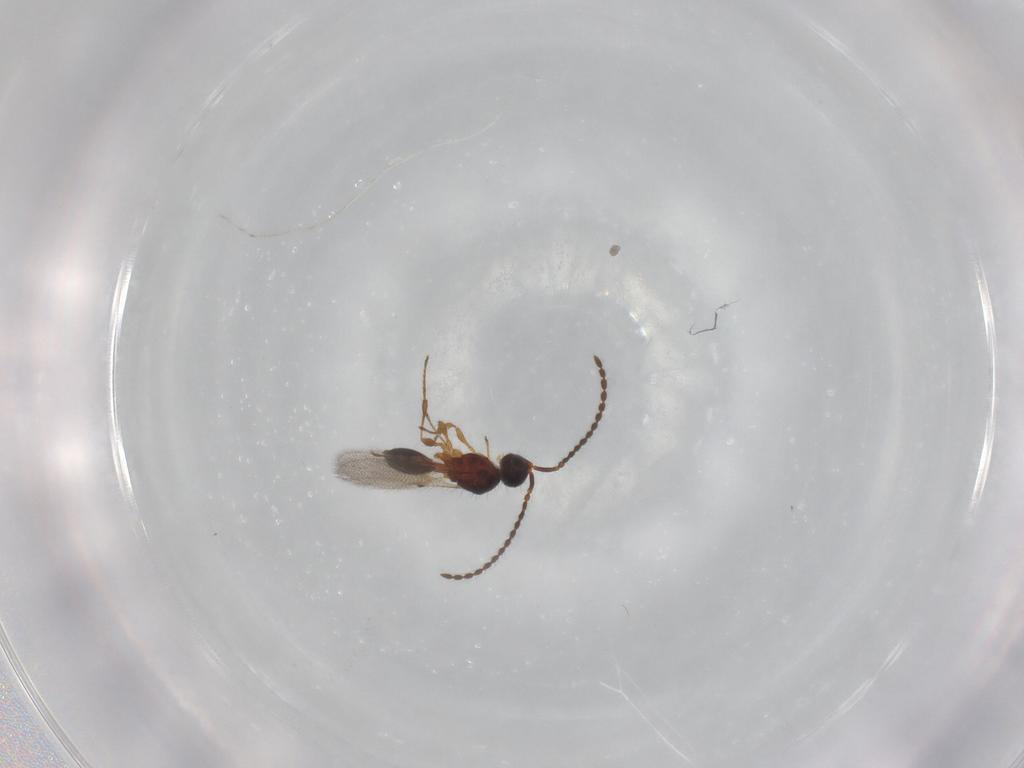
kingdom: Animalia
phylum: Arthropoda
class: Insecta
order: Hymenoptera
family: Diapriidae
